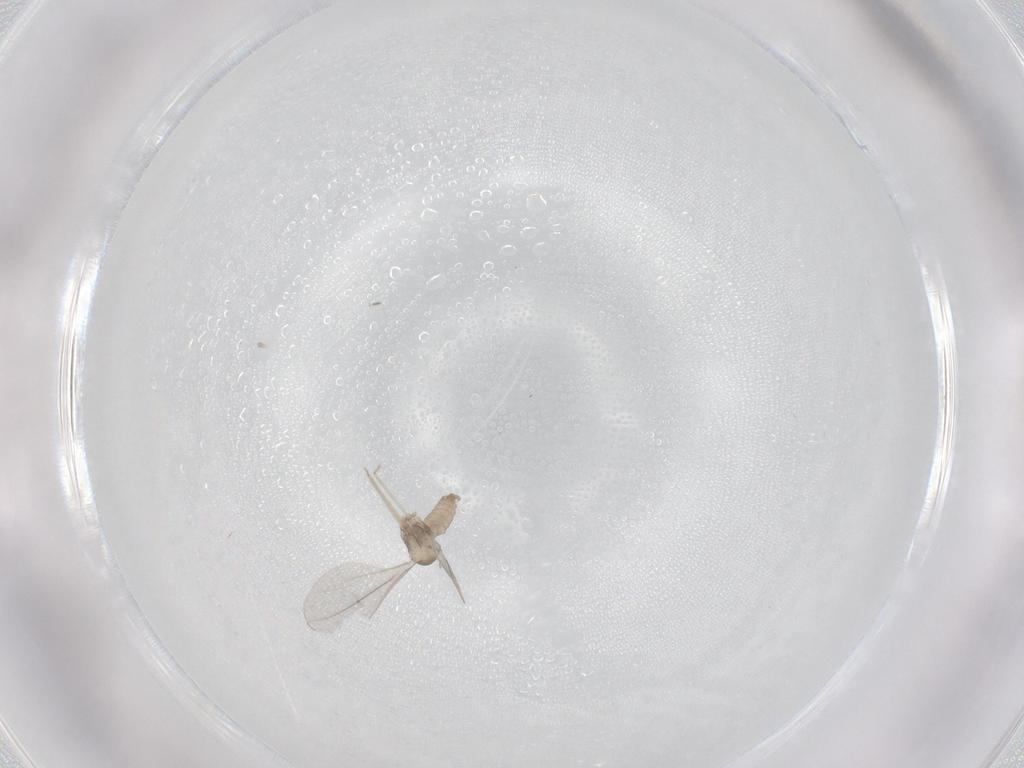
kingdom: Animalia
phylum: Arthropoda
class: Insecta
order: Diptera
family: Cecidomyiidae
